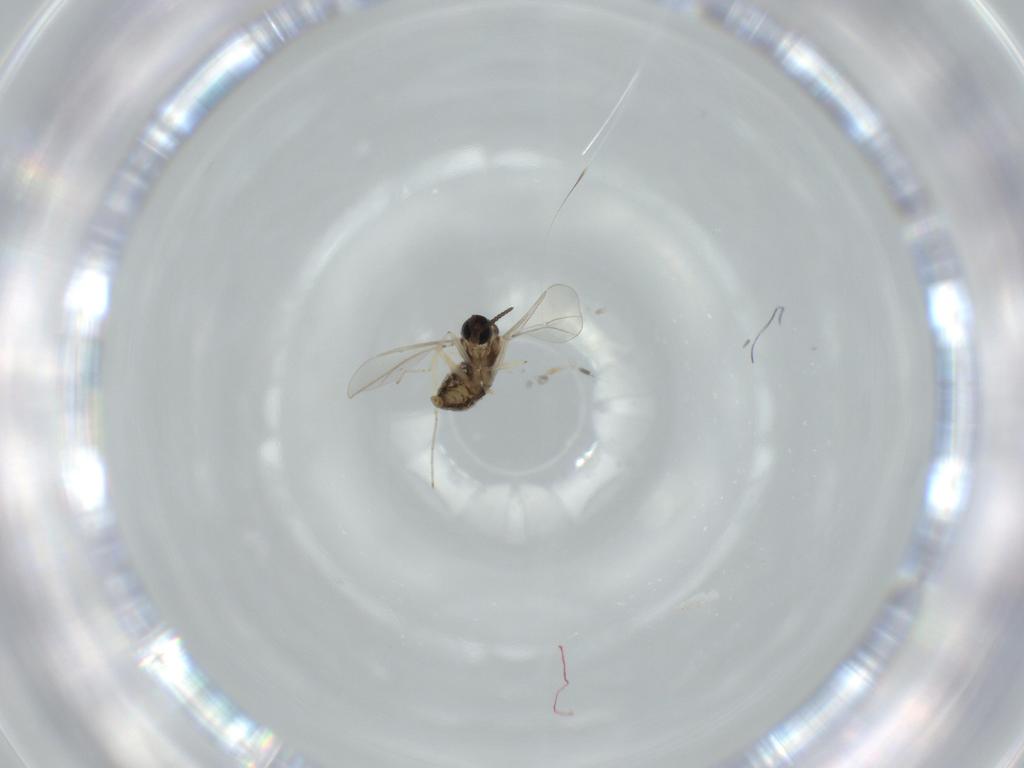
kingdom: Animalia
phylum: Arthropoda
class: Insecta
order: Diptera
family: Cecidomyiidae
